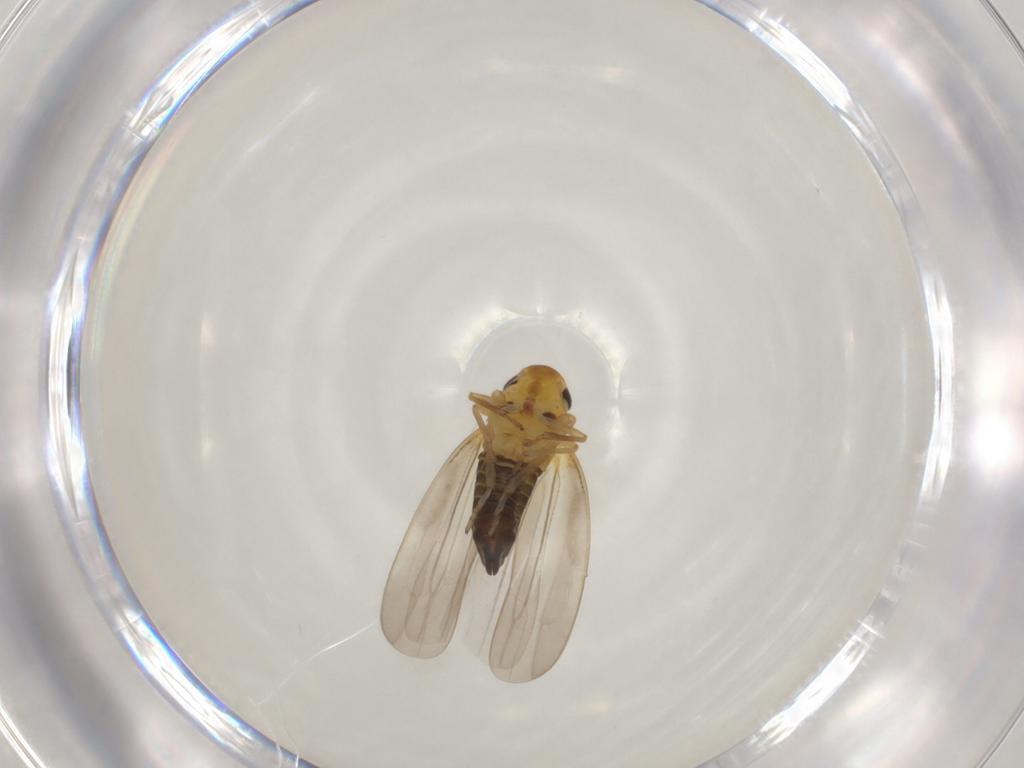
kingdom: Animalia
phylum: Arthropoda
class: Insecta
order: Hemiptera
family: Cicadellidae
